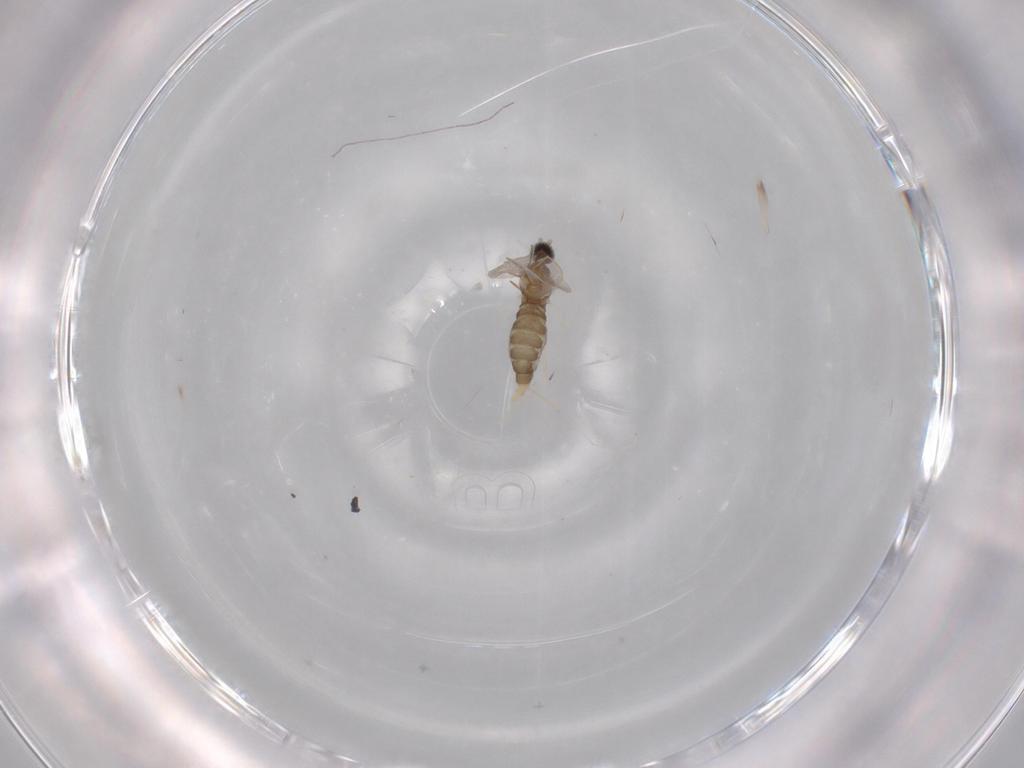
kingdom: Animalia
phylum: Arthropoda
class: Insecta
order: Diptera
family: Cecidomyiidae
